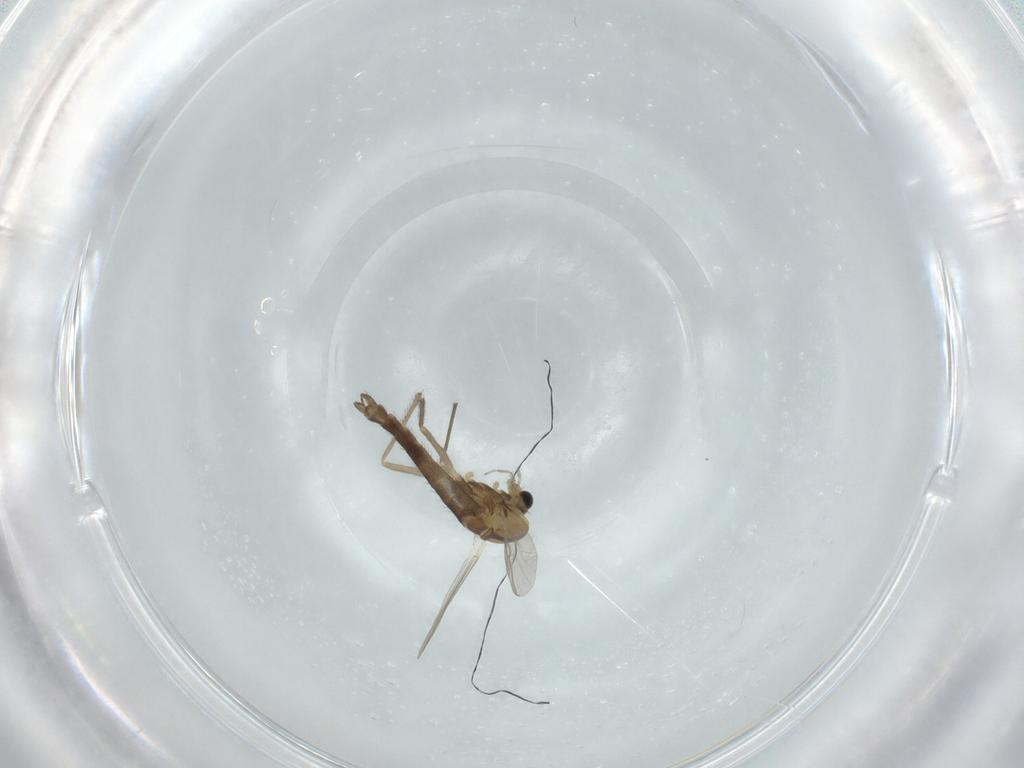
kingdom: Animalia
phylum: Arthropoda
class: Insecta
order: Diptera
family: Chironomidae
